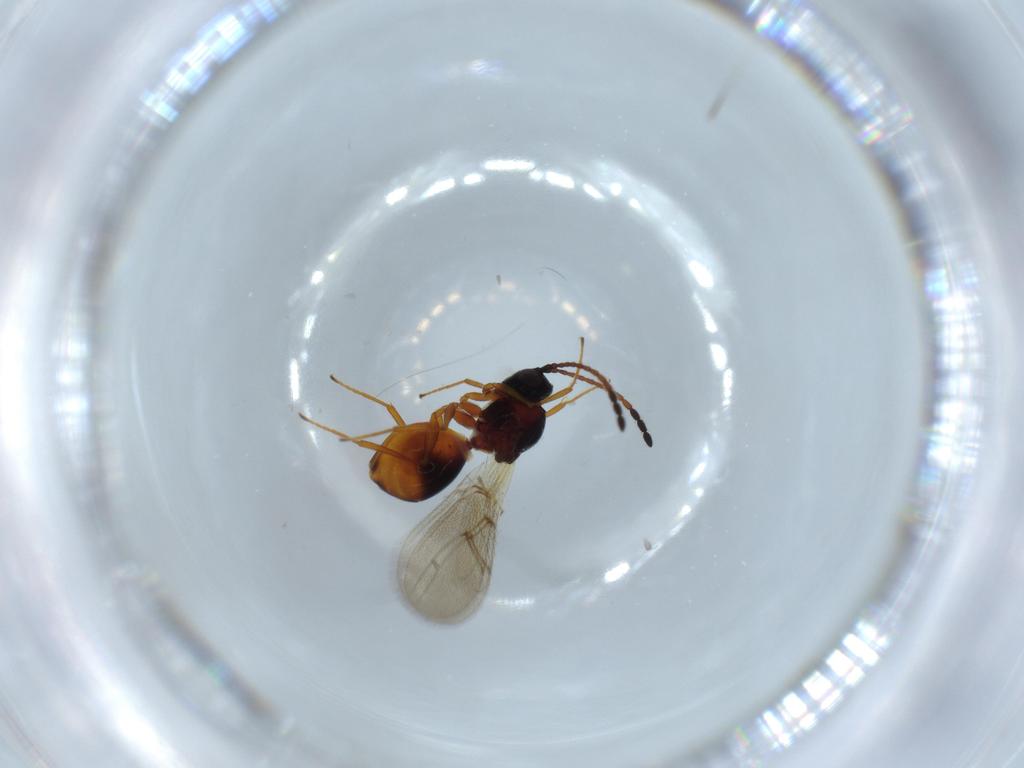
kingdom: Animalia
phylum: Arthropoda
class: Insecta
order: Hymenoptera
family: Figitidae
